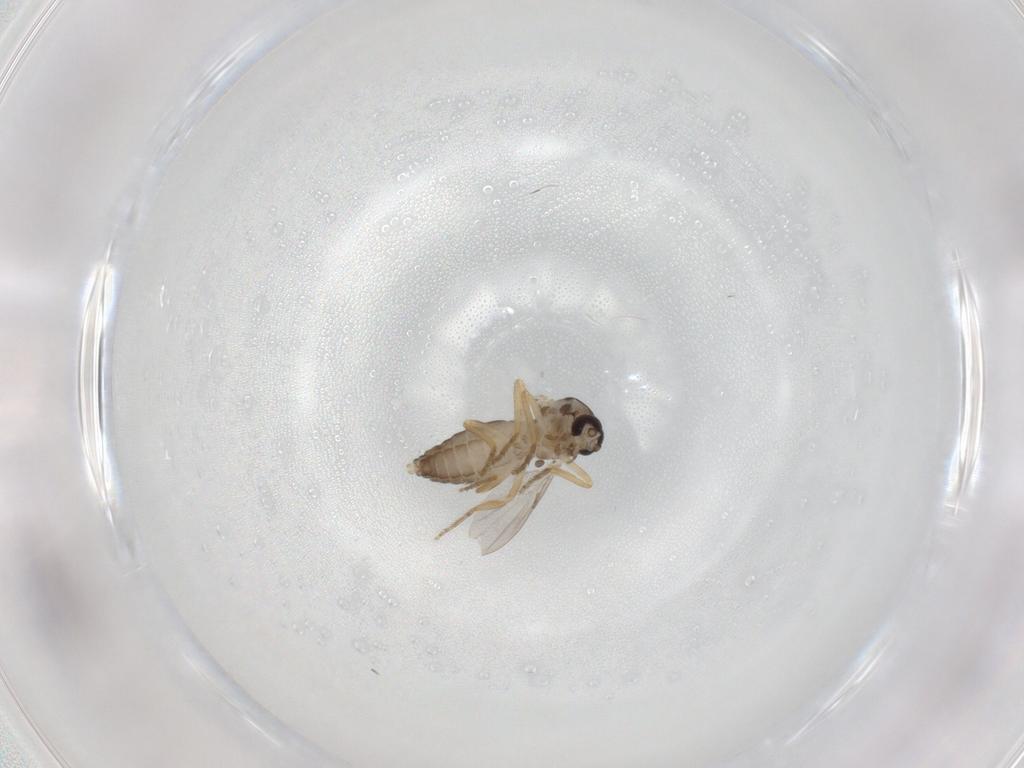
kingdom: Animalia
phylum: Arthropoda
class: Insecta
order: Diptera
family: Ceratopogonidae
